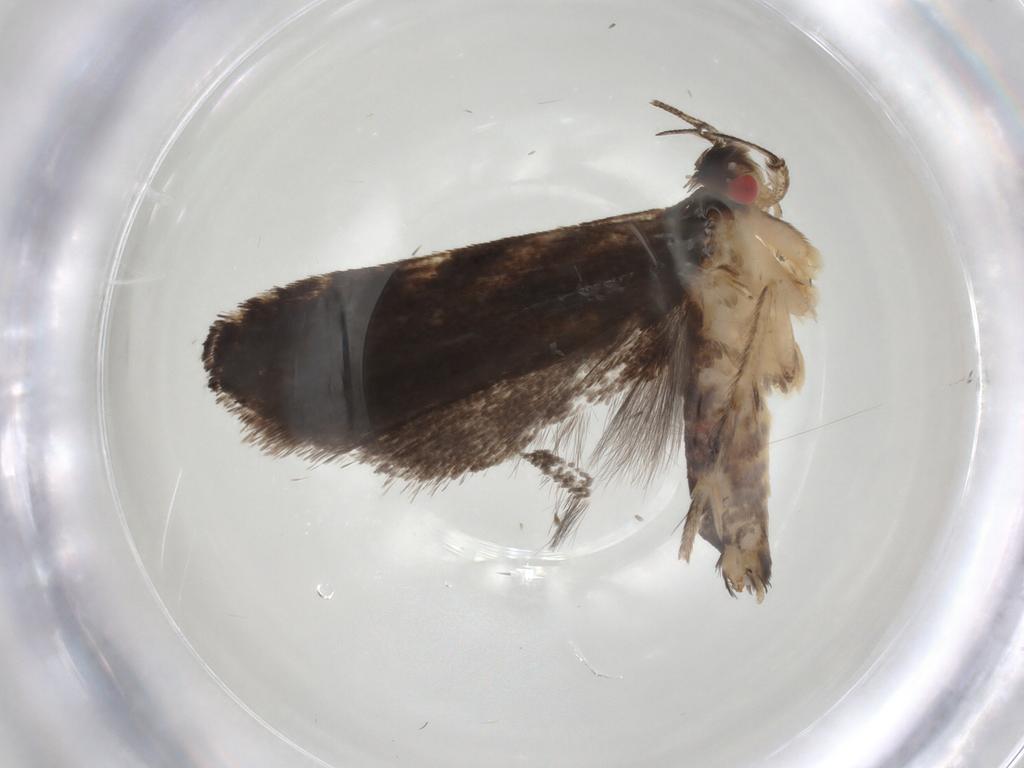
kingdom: Animalia
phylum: Arthropoda
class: Insecta
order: Lepidoptera
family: Gelechiidae
